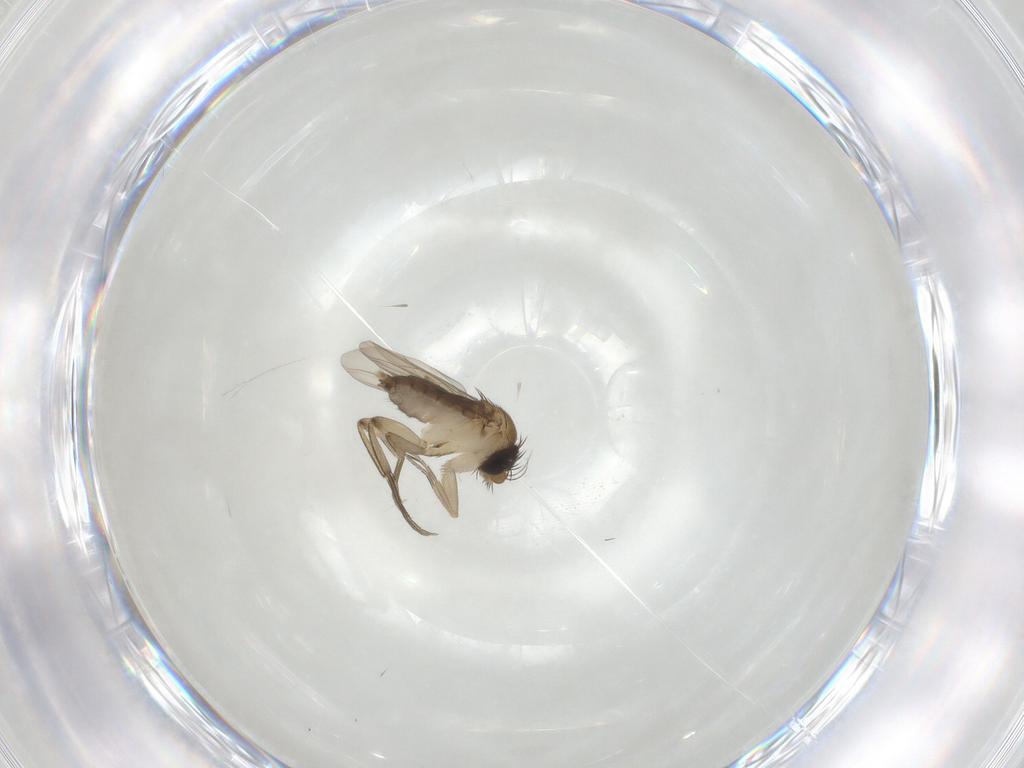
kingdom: Animalia
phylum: Arthropoda
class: Insecta
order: Diptera
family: Phoridae
